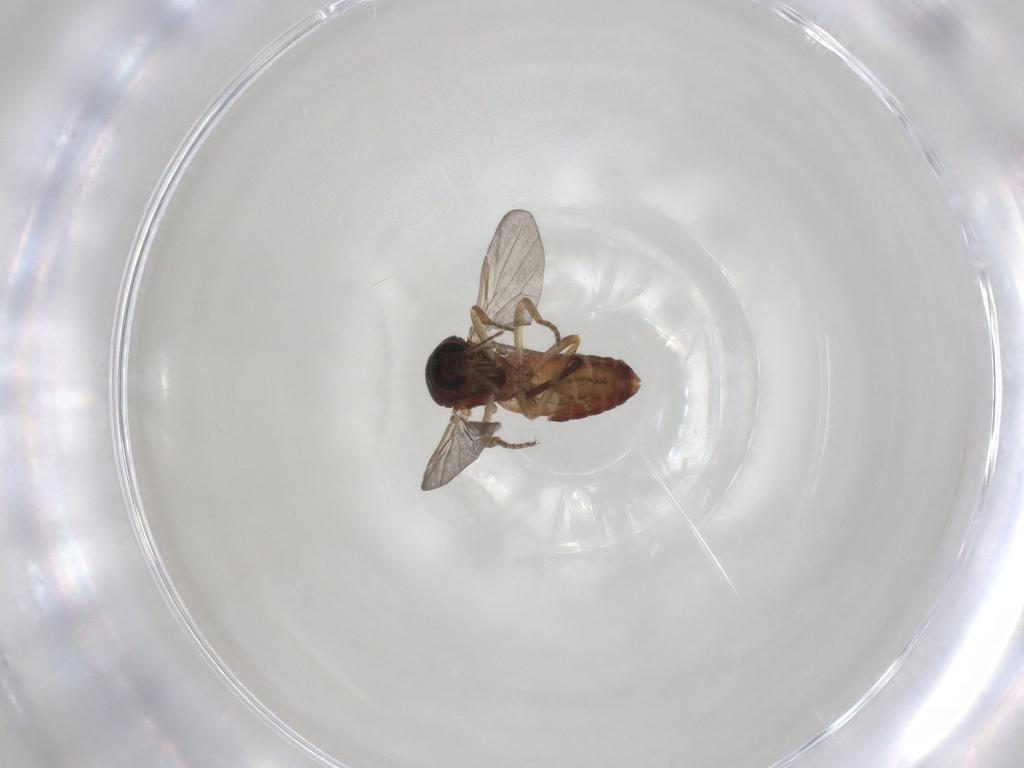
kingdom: Animalia
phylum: Arthropoda
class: Insecta
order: Diptera
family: Ceratopogonidae
